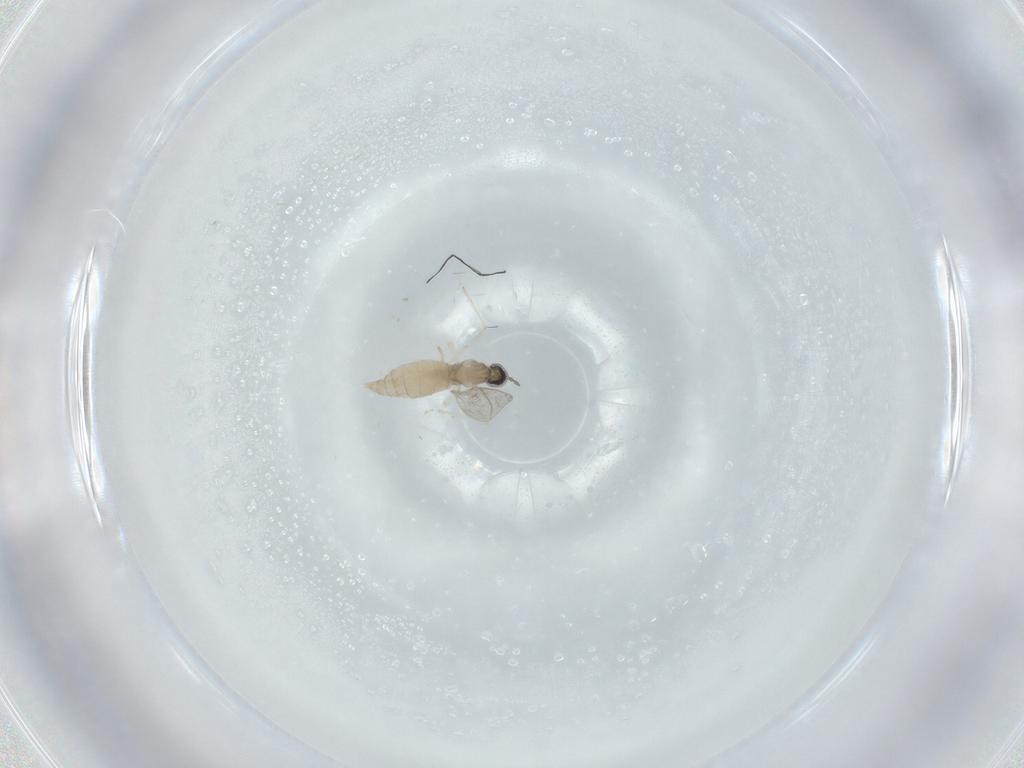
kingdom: Animalia
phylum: Arthropoda
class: Insecta
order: Diptera
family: Cecidomyiidae
